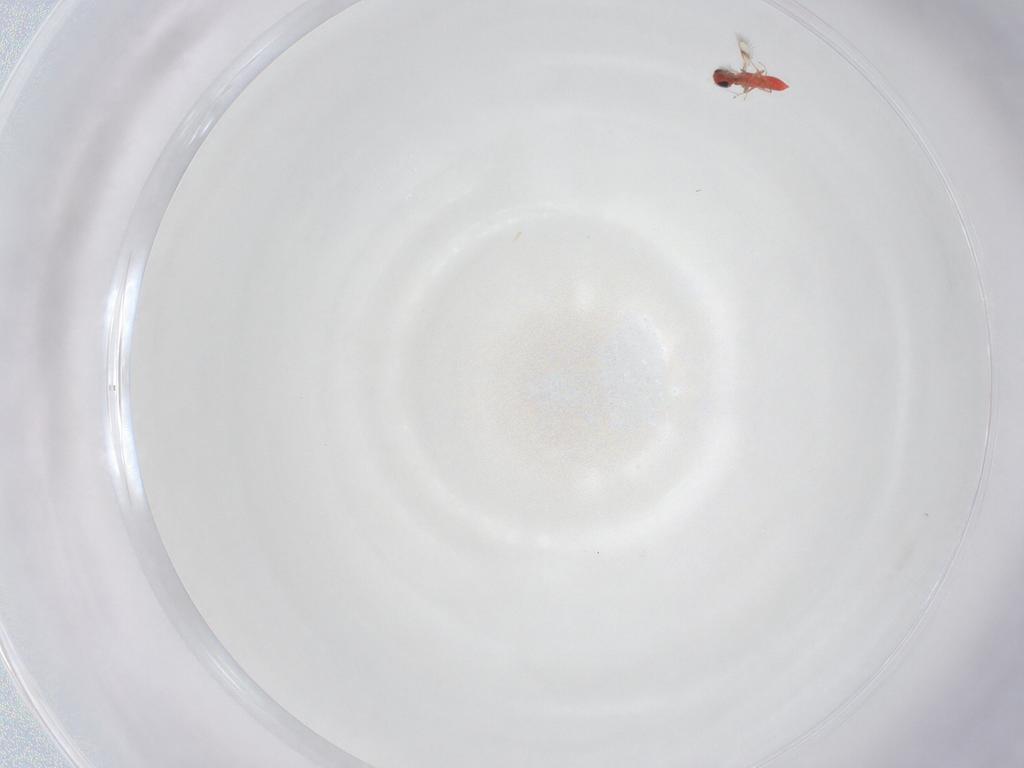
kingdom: Animalia
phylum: Arthropoda
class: Insecta
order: Hymenoptera
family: Trichogrammatidae
